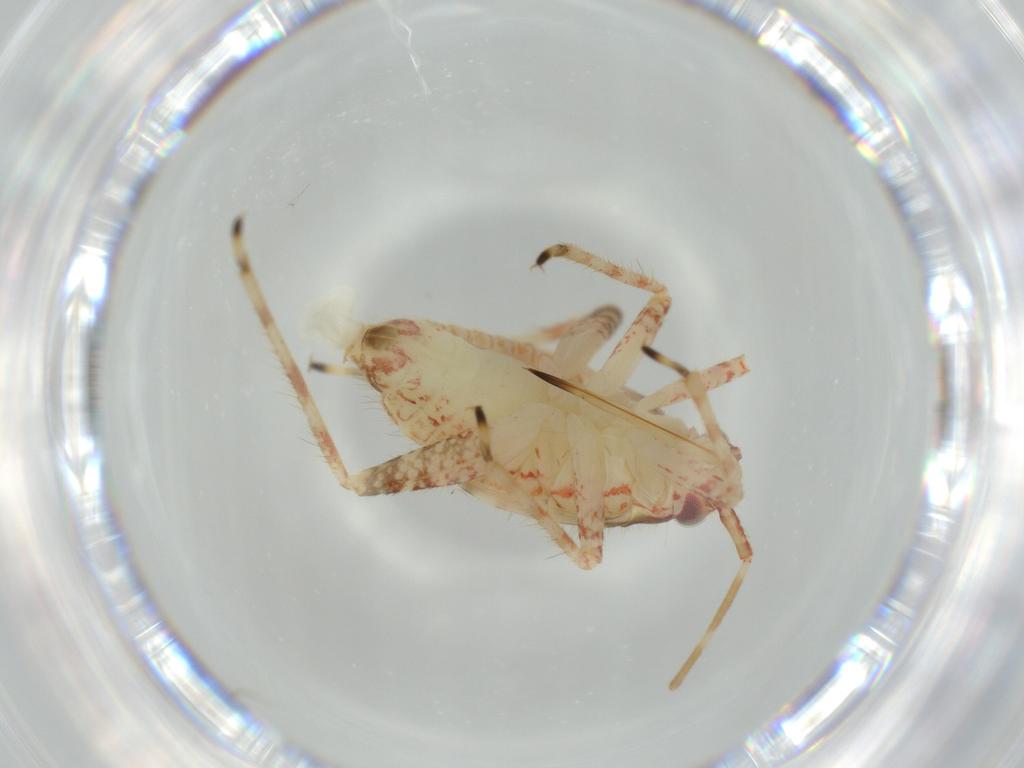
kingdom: Animalia
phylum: Arthropoda
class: Insecta
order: Hemiptera
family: Miridae
